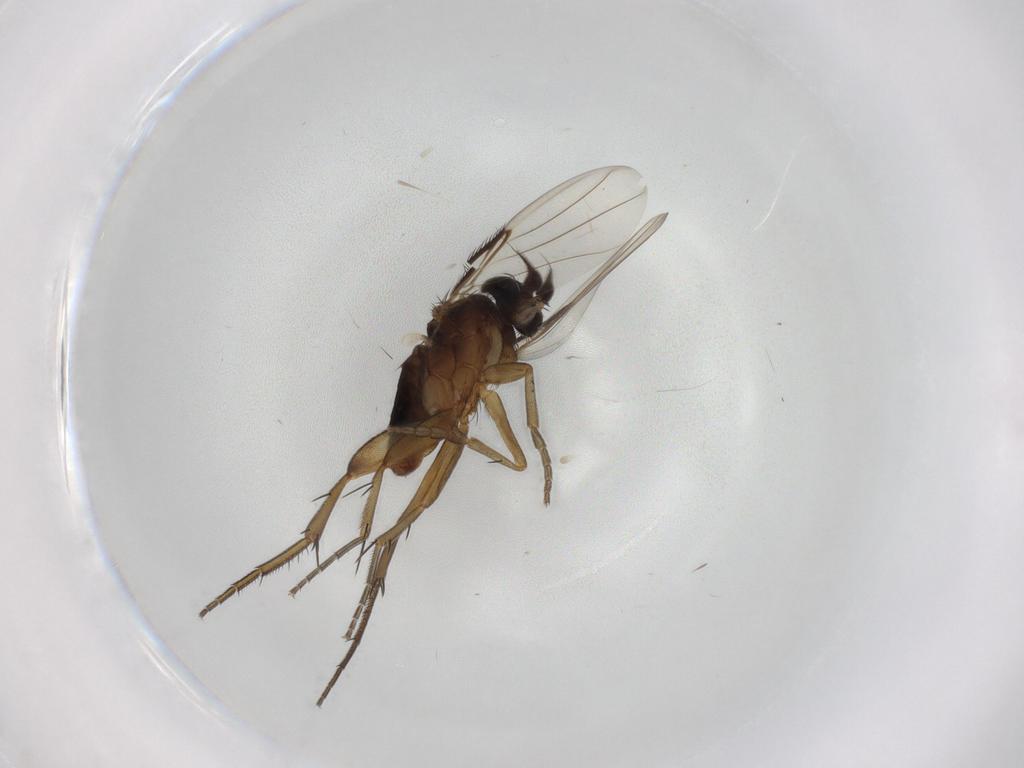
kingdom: Animalia
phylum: Arthropoda
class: Insecta
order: Diptera
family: Phoridae
